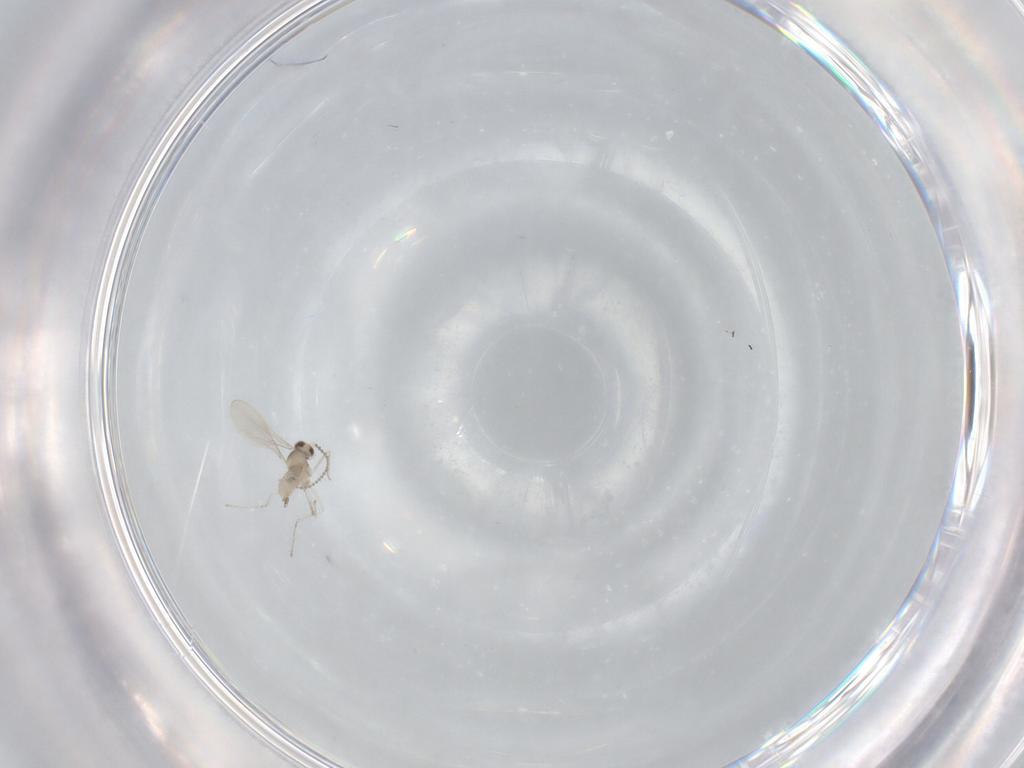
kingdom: Animalia
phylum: Arthropoda
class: Insecta
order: Diptera
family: Cecidomyiidae
